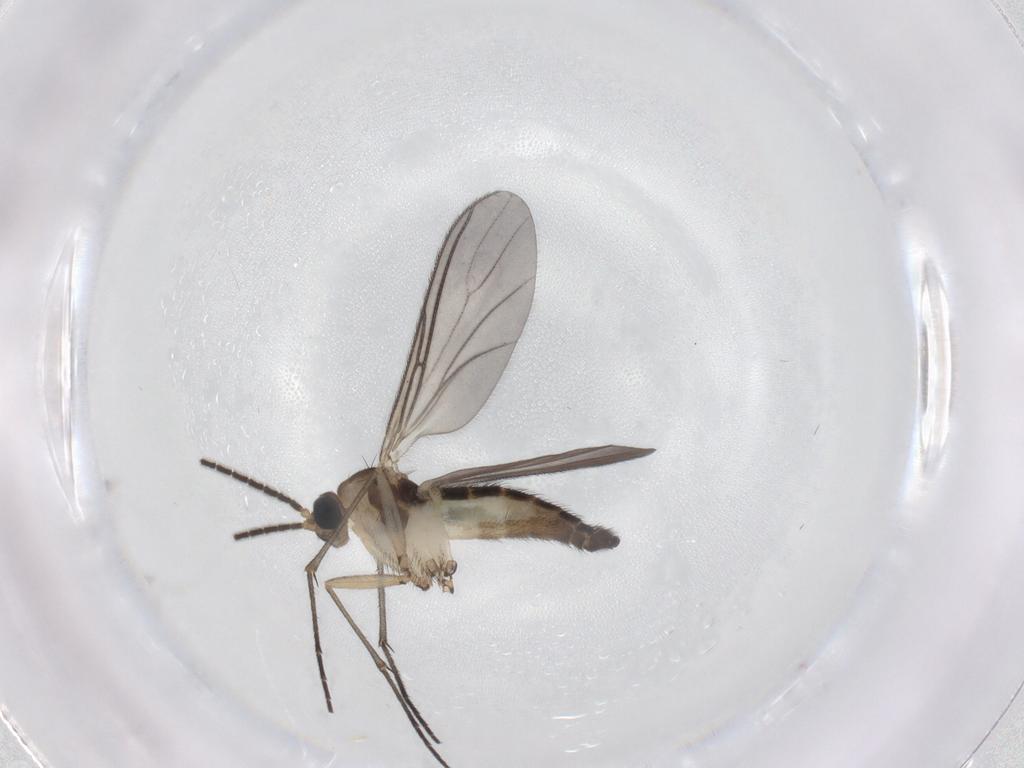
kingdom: Animalia
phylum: Arthropoda
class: Insecta
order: Diptera
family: Sciaridae
